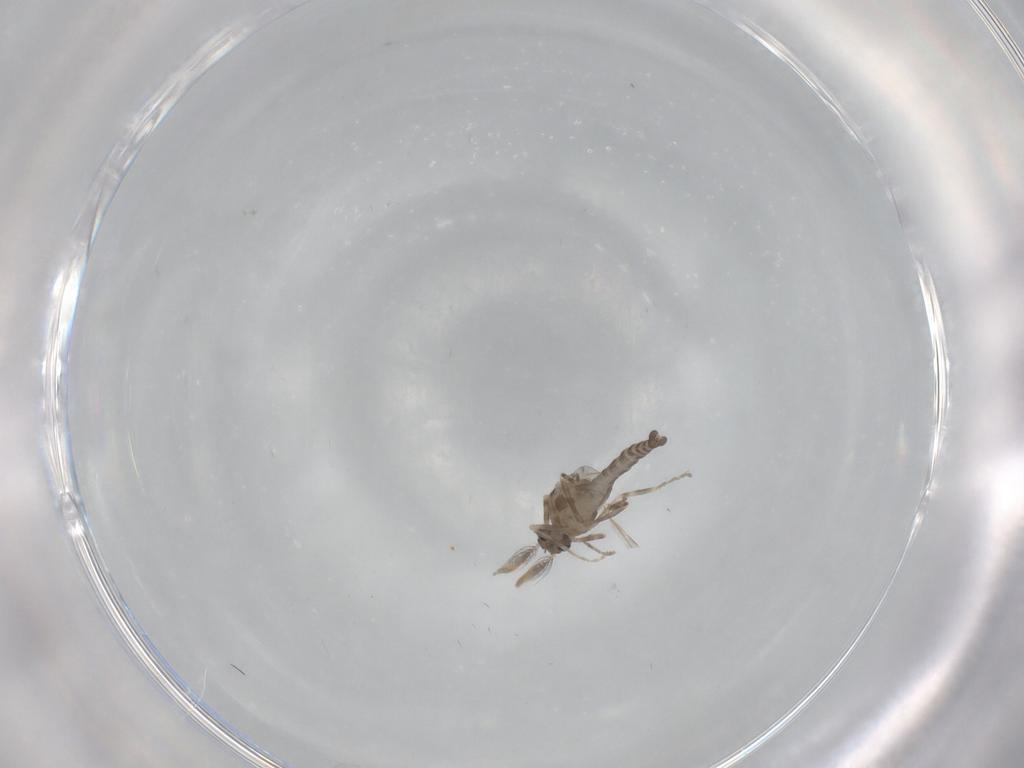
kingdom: Animalia
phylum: Arthropoda
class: Insecta
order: Diptera
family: Ceratopogonidae
